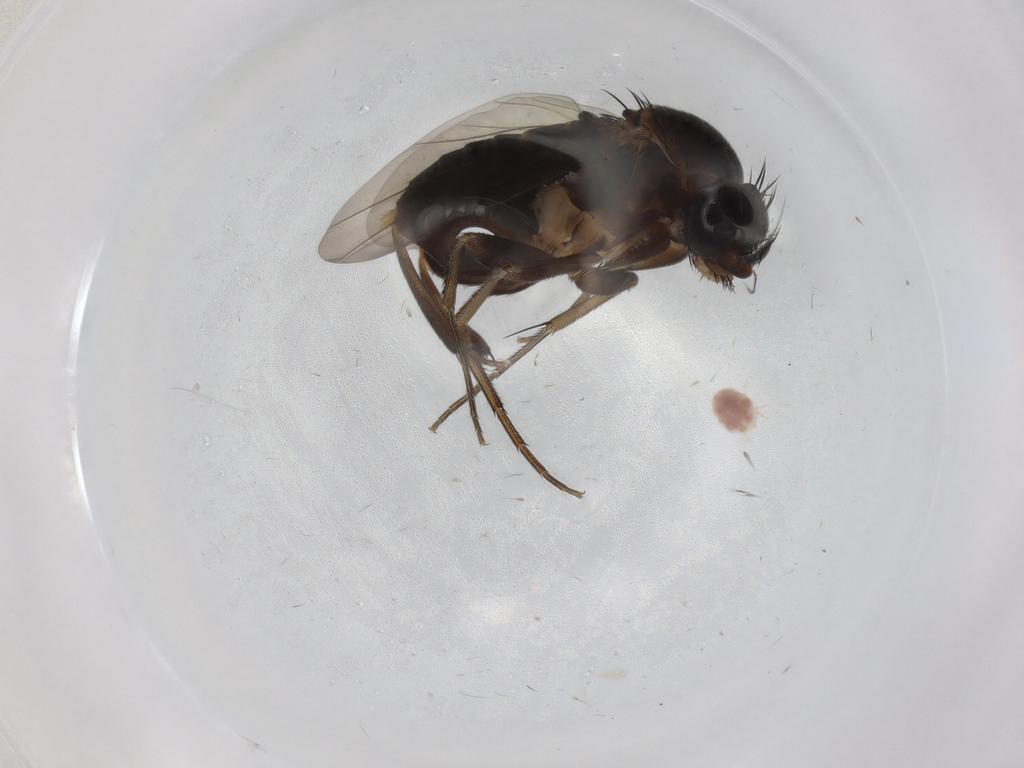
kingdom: Animalia
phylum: Arthropoda
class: Insecta
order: Diptera
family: Phoridae
